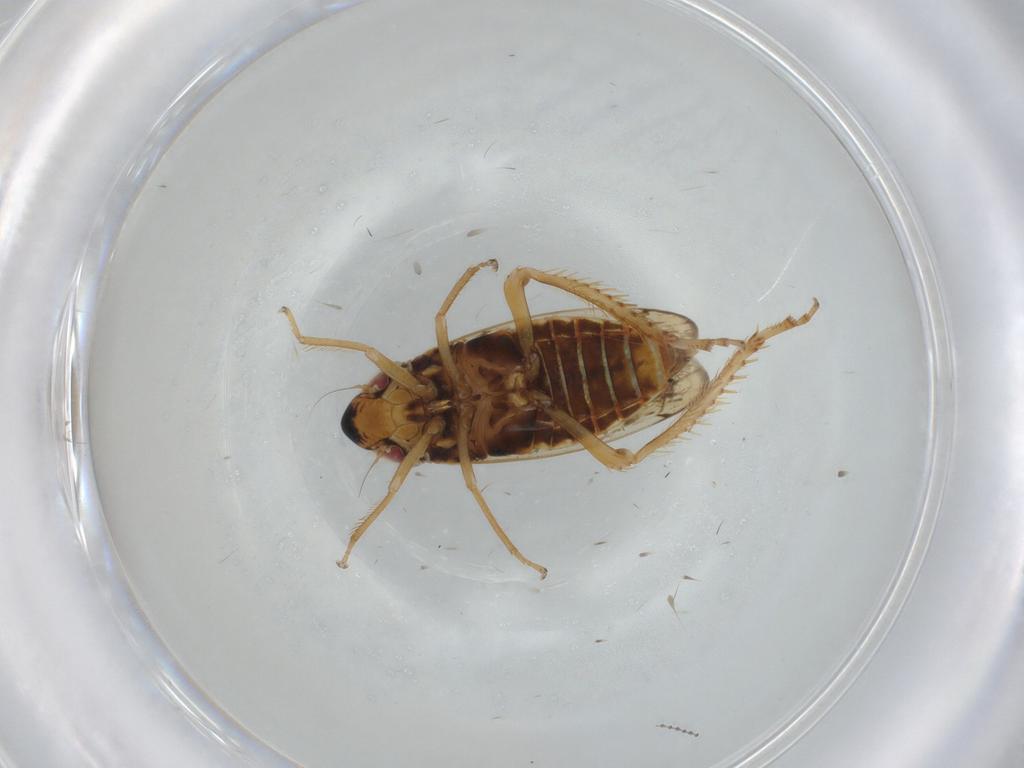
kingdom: Animalia
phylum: Arthropoda
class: Insecta
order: Hemiptera
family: Cicadellidae
